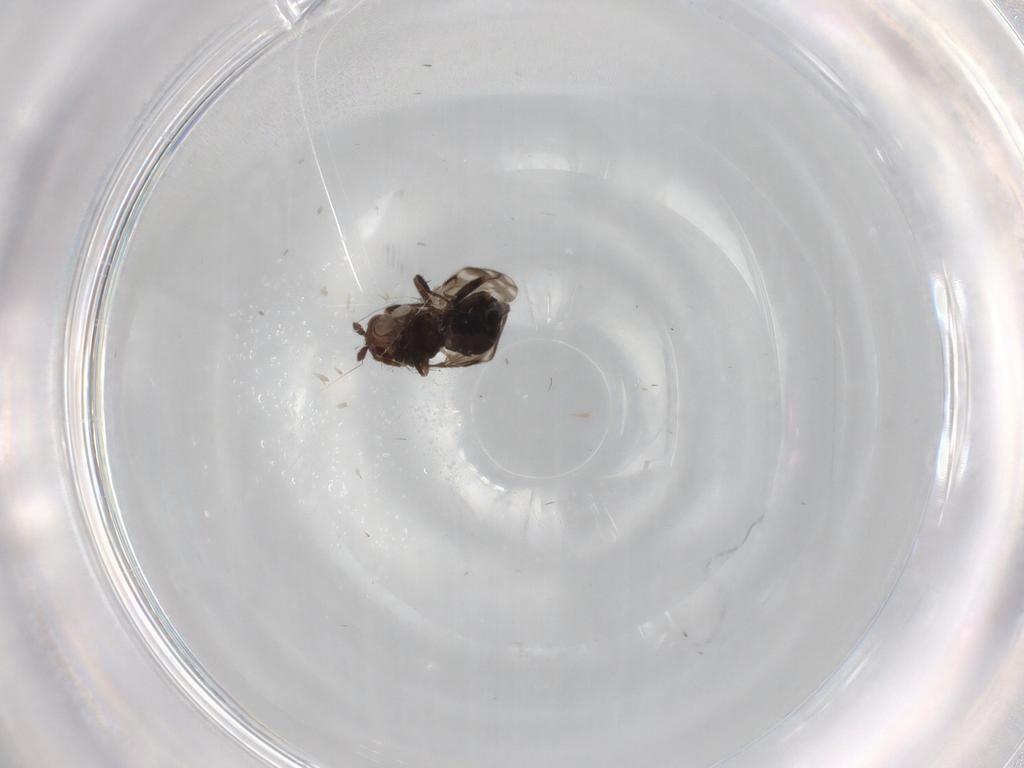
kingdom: Animalia
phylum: Arthropoda
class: Insecta
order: Diptera
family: Sphaeroceridae
